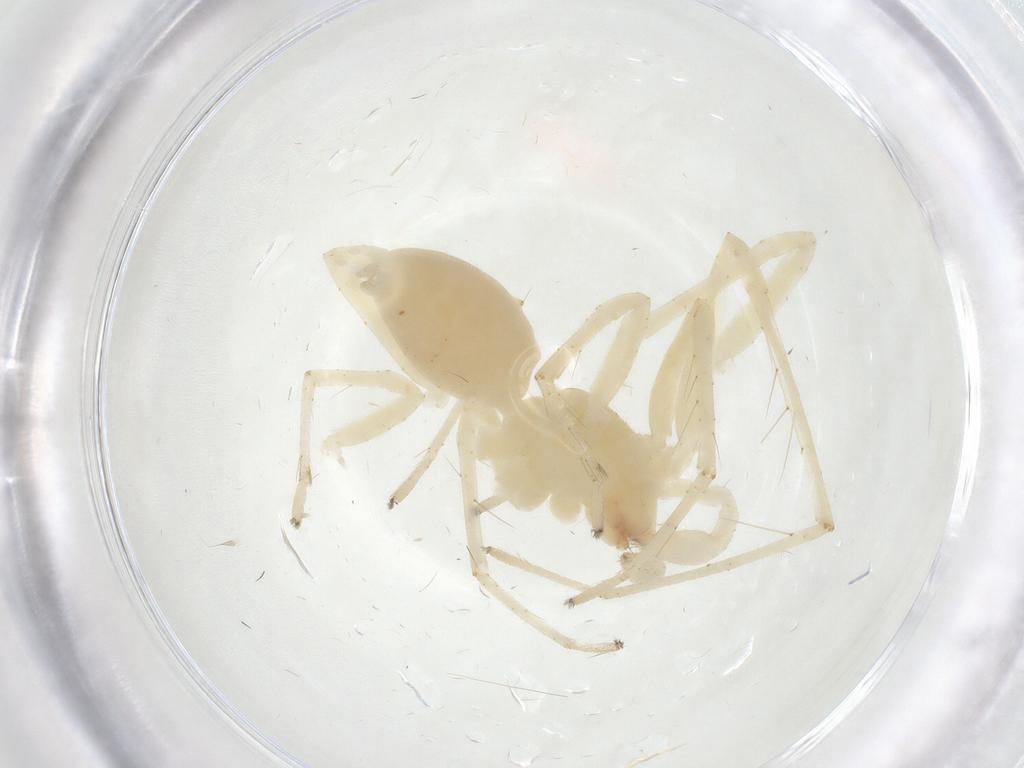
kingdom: Animalia
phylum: Arthropoda
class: Arachnida
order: Araneae
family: Anyphaenidae
